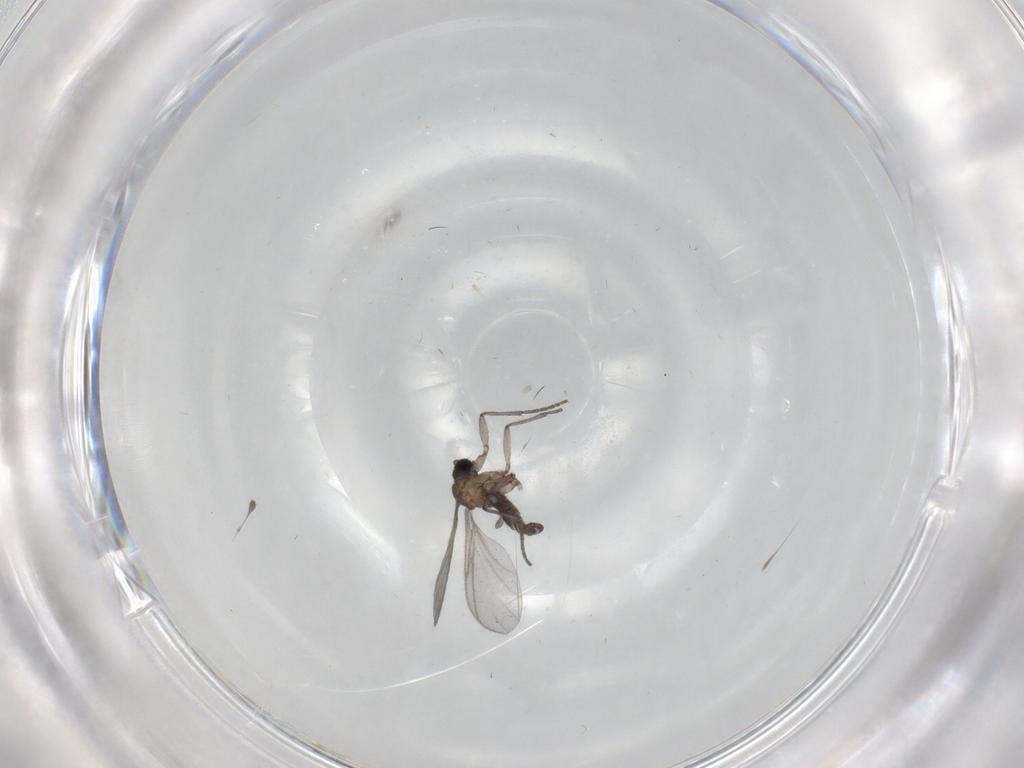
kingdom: Animalia
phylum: Arthropoda
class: Insecta
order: Diptera
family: Sciaridae
